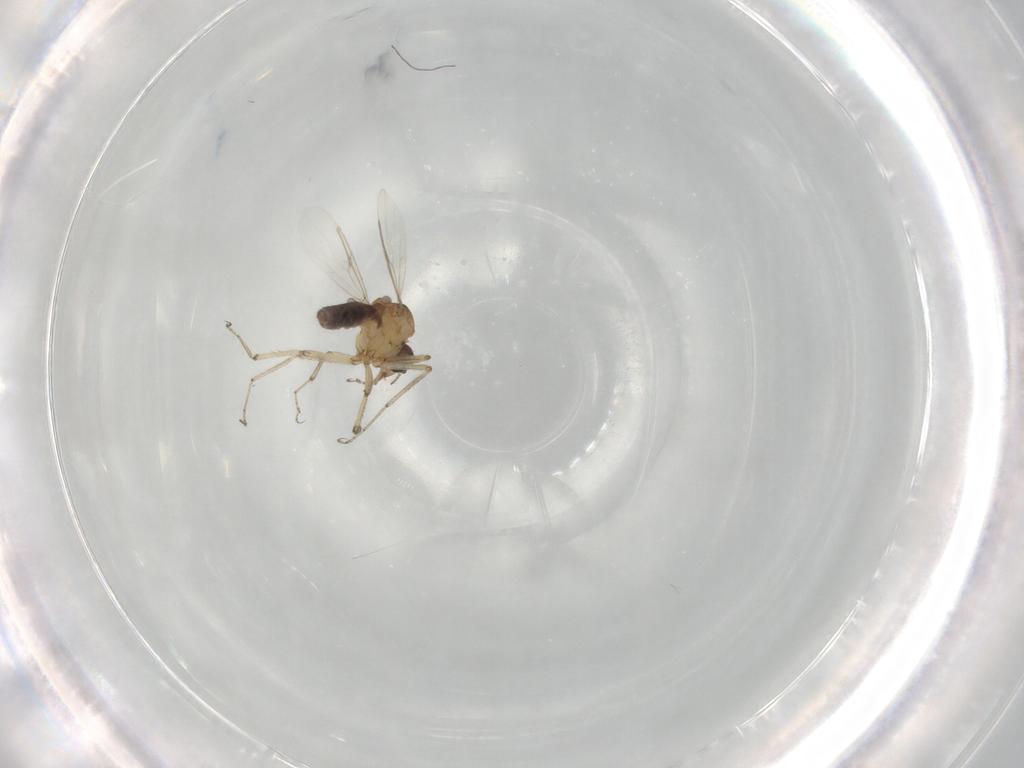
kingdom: Animalia
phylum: Arthropoda
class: Insecta
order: Diptera
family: Ceratopogonidae
